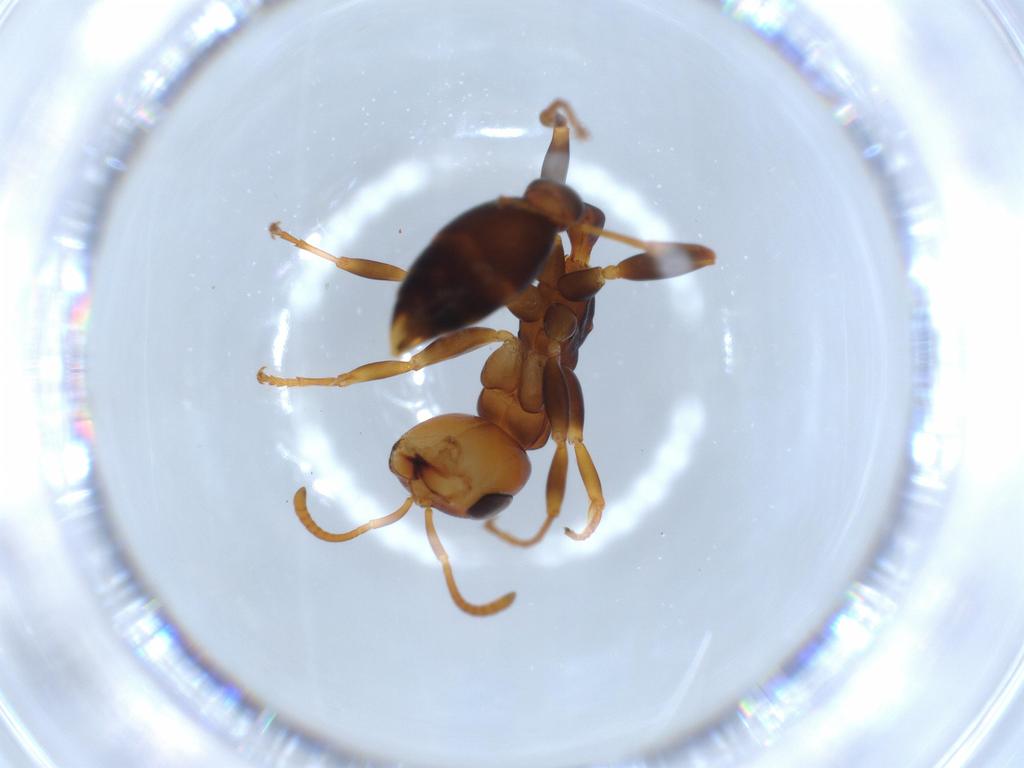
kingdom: Animalia
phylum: Arthropoda
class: Insecta
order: Hymenoptera
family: Formicidae
